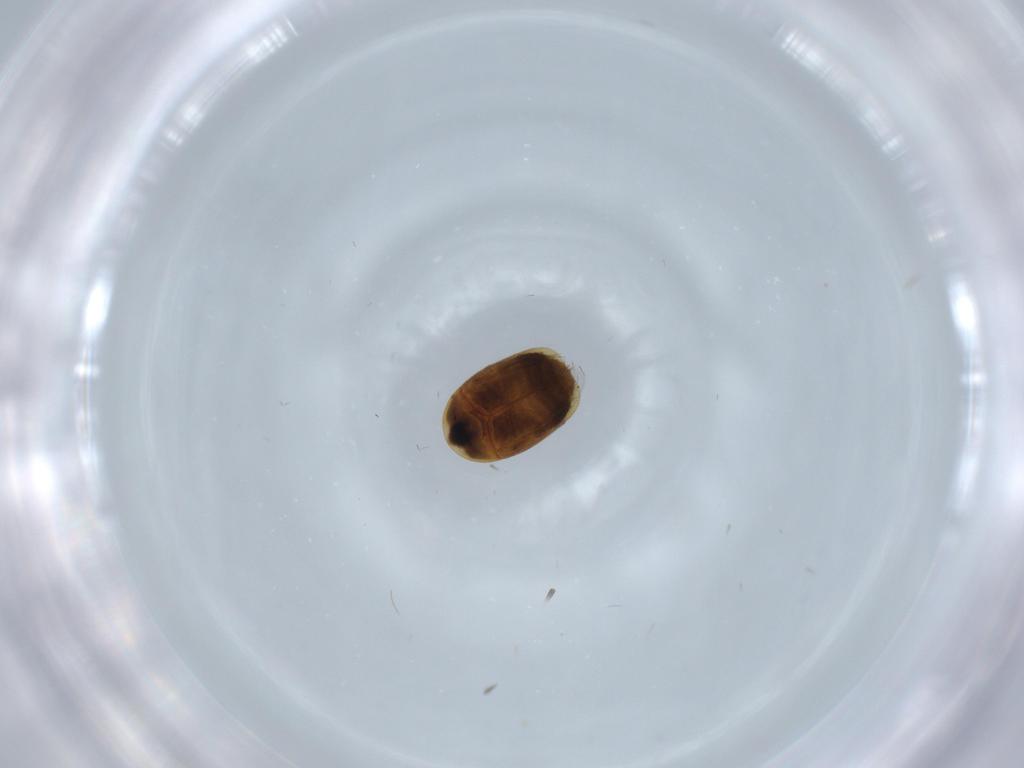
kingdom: Animalia
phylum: Arthropoda
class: Insecta
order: Coleoptera
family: Corylophidae
